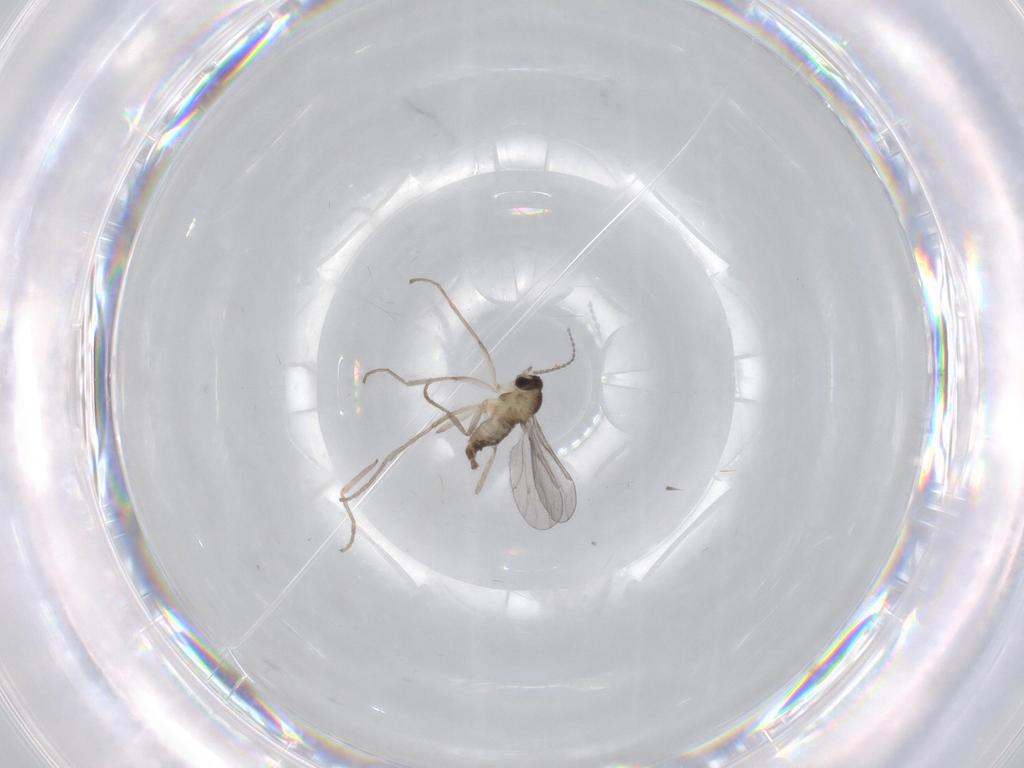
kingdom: Animalia
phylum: Arthropoda
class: Insecta
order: Diptera
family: Cecidomyiidae
